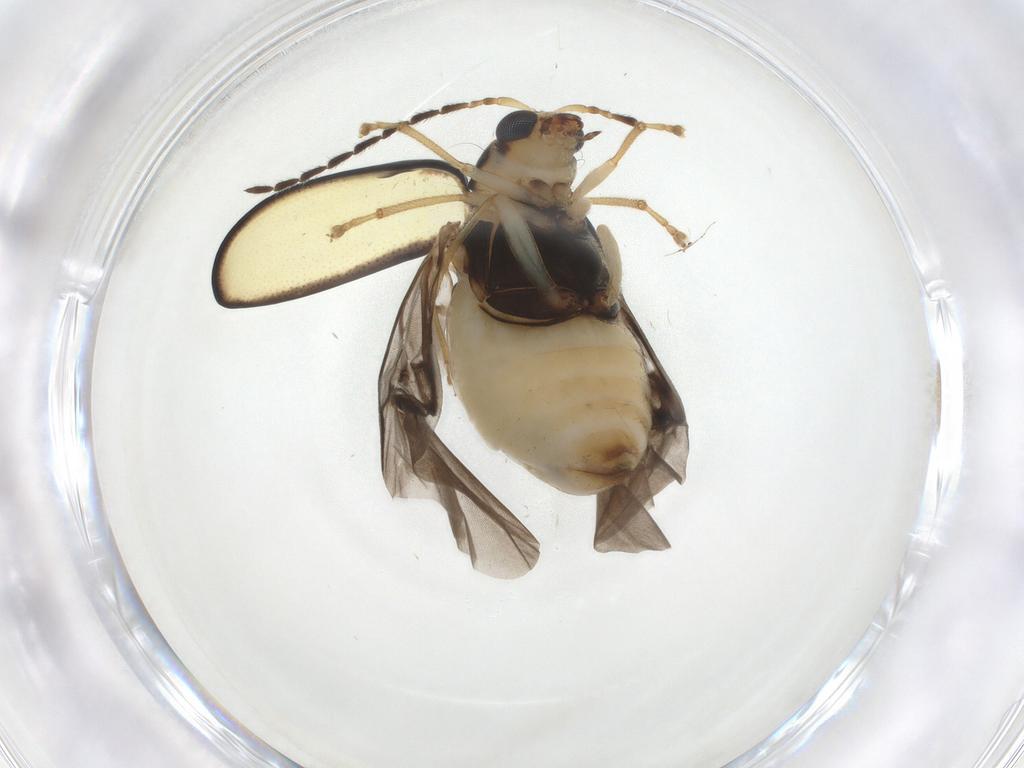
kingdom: Animalia
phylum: Arthropoda
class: Insecta
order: Coleoptera
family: Chrysomelidae
